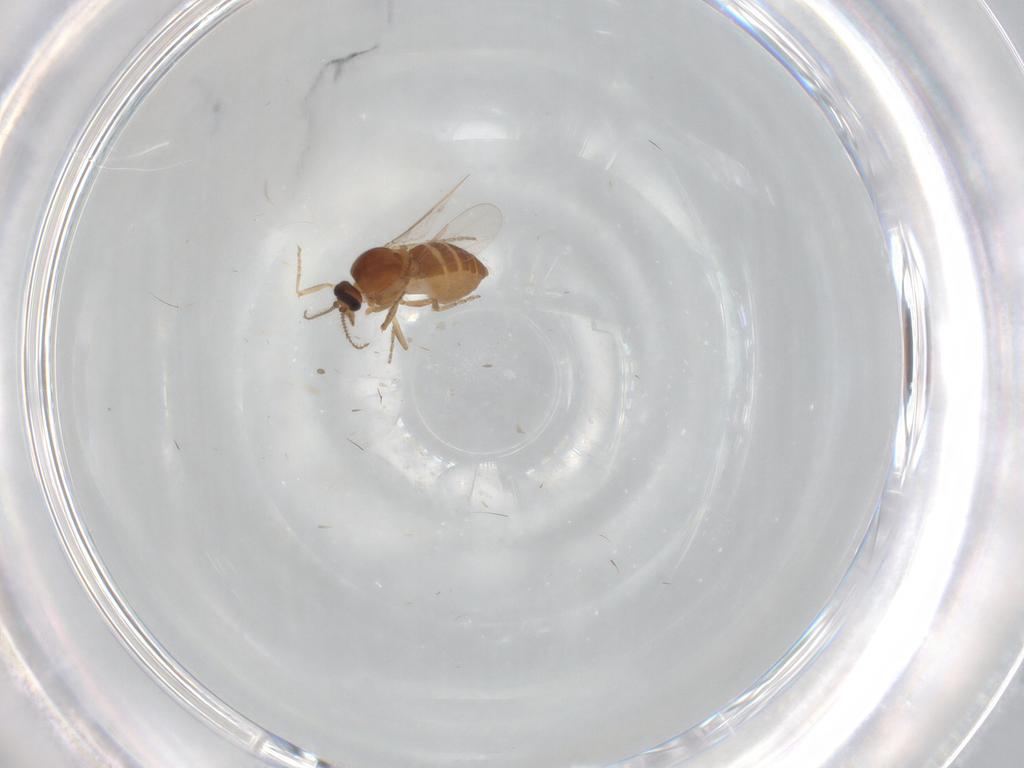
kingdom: Animalia
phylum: Arthropoda
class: Insecta
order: Diptera
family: Ceratopogonidae
